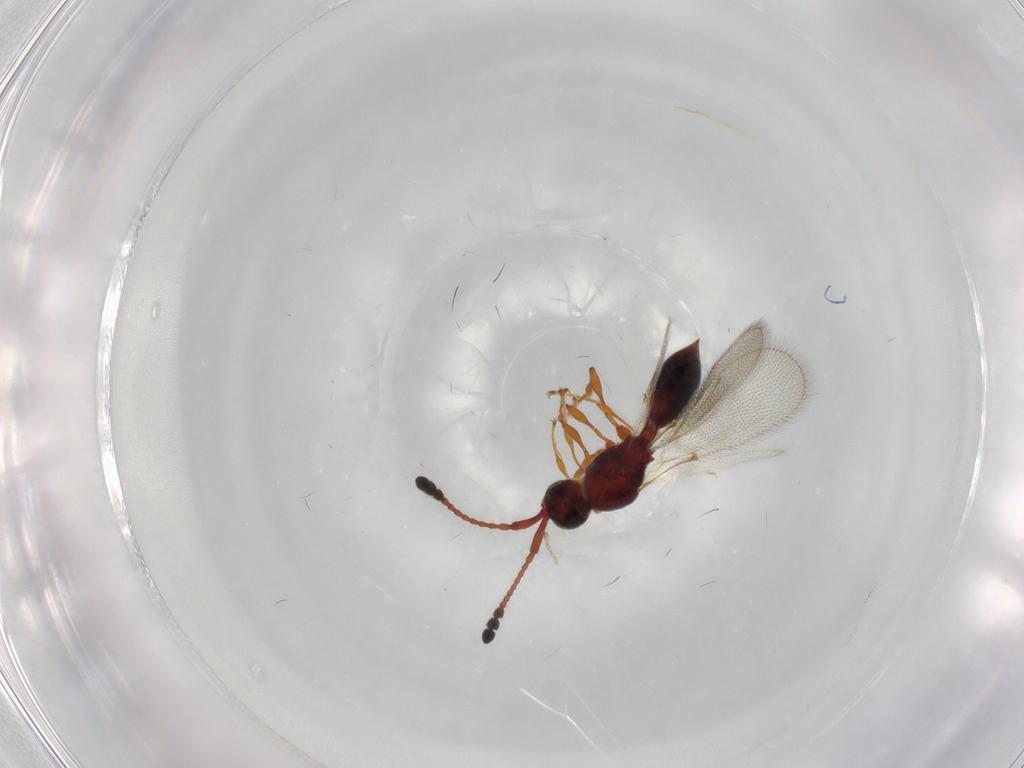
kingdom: Animalia
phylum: Arthropoda
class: Insecta
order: Hymenoptera
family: Diapriidae
